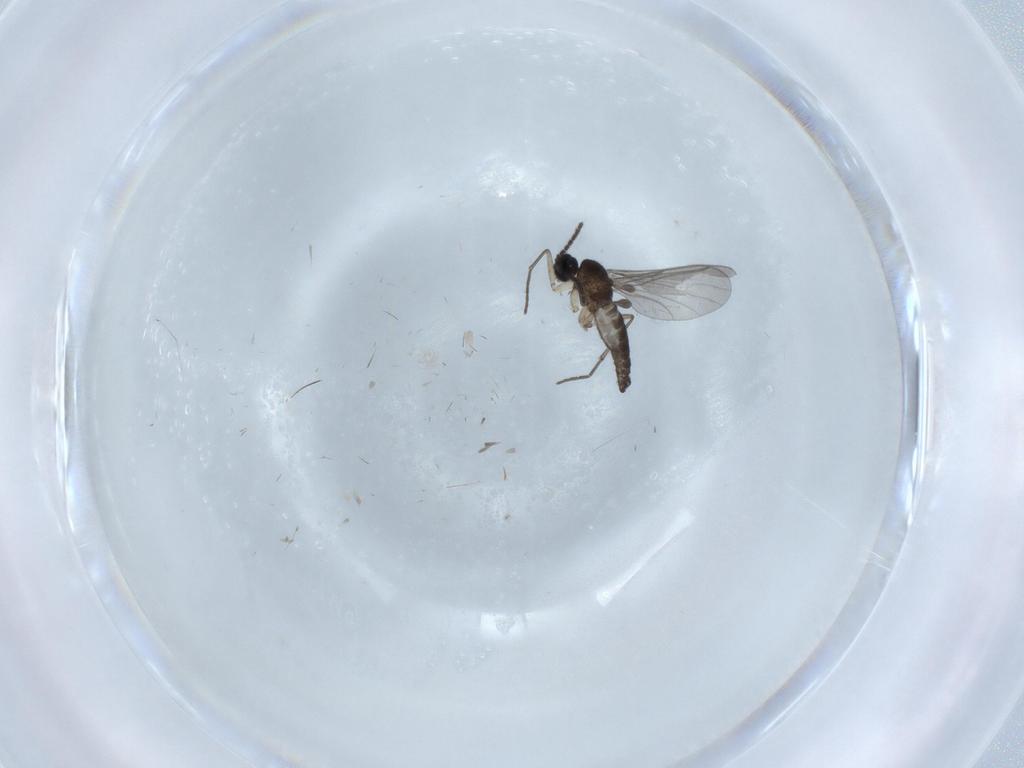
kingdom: Animalia
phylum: Arthropoda
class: Insecta
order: Diptera
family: Sciaridae
